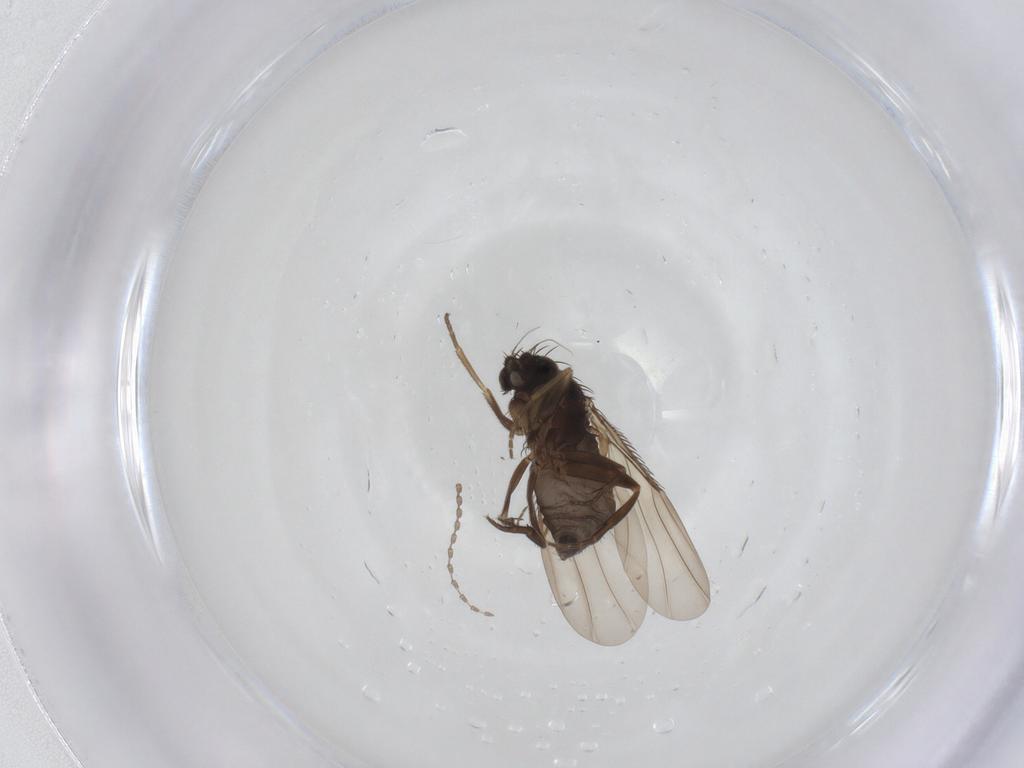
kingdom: Animalia
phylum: Arthropoda
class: Insecta
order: Diptera
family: Phoridae
